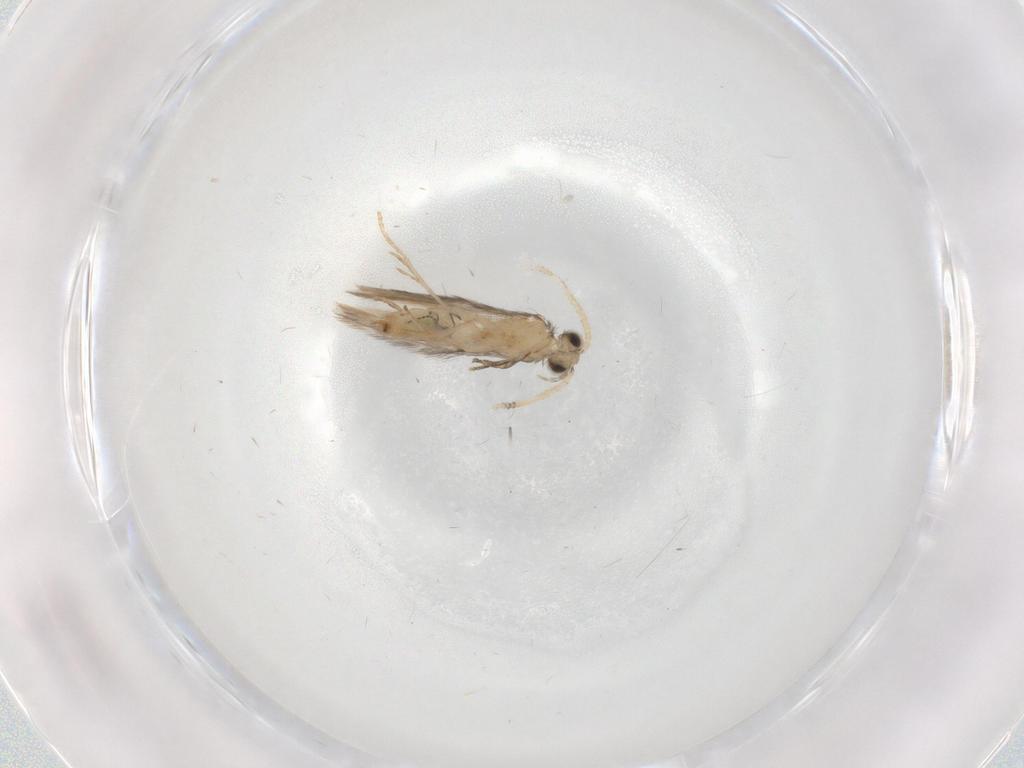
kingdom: Animalia
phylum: Arthropoda
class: Insecta
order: Trichoptera
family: Hydroptilidae
